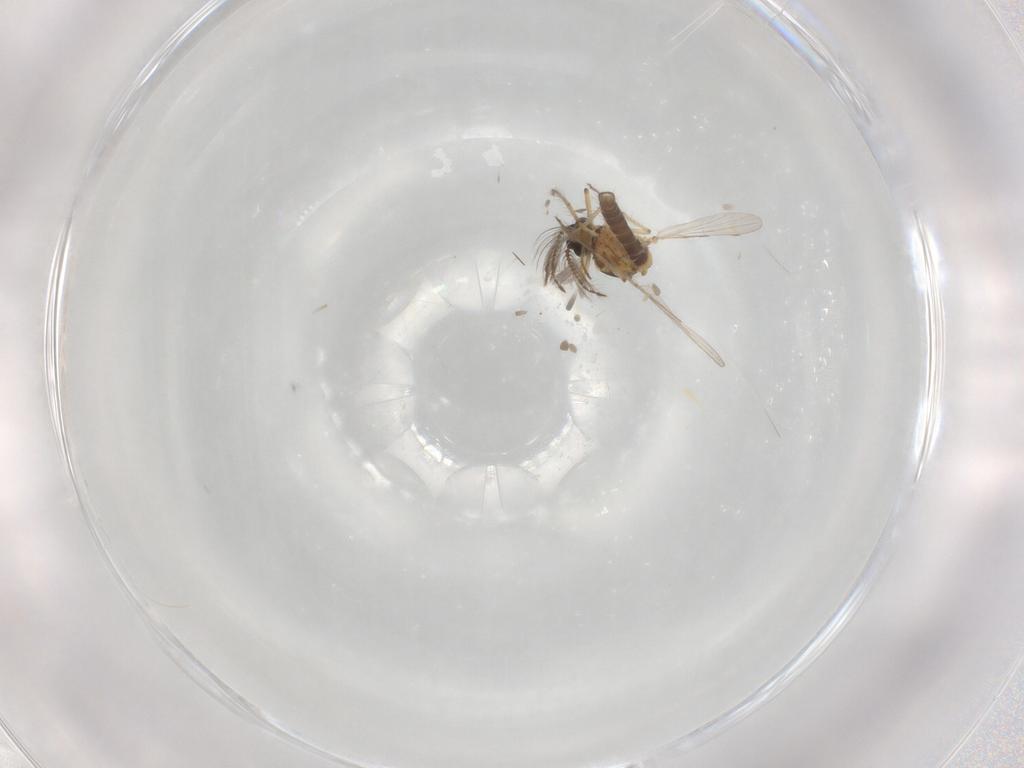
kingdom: Animalia
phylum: Arthropoda
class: Insecta
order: Diptera
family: Ceratopogonidae
